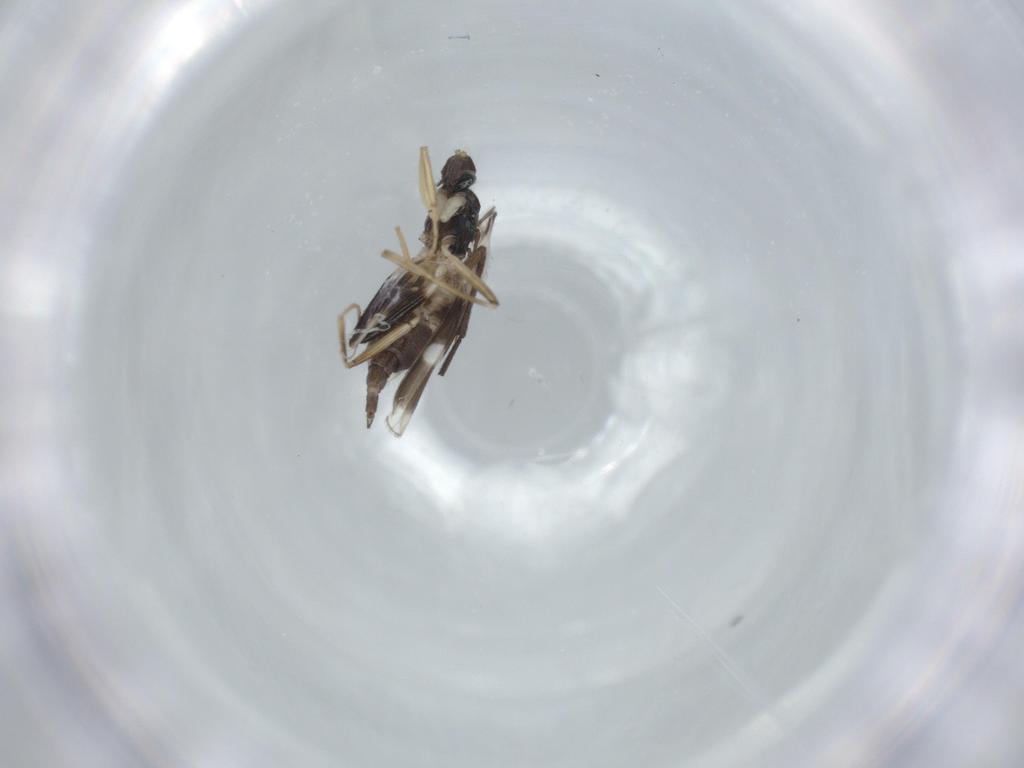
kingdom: Animalia
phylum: Arthropoda
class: Insecta
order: Diptera
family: Hybotidae
